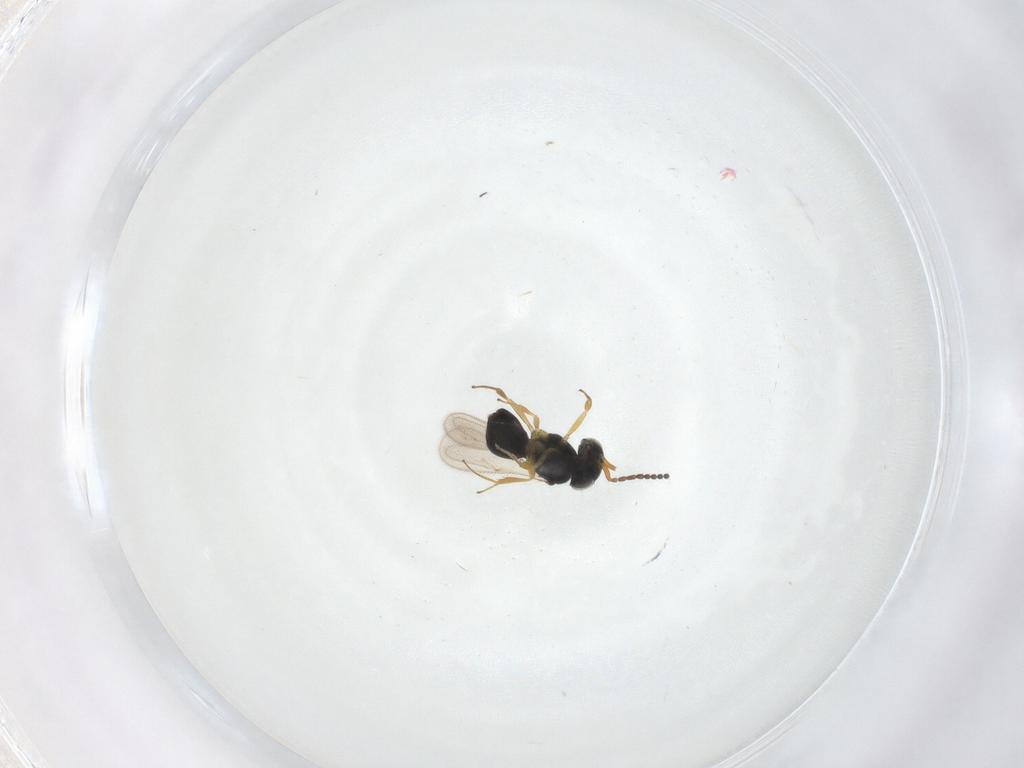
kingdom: Animalia
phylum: Arthropoda
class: Insecta
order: Hymenoptera
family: Scelionidae
